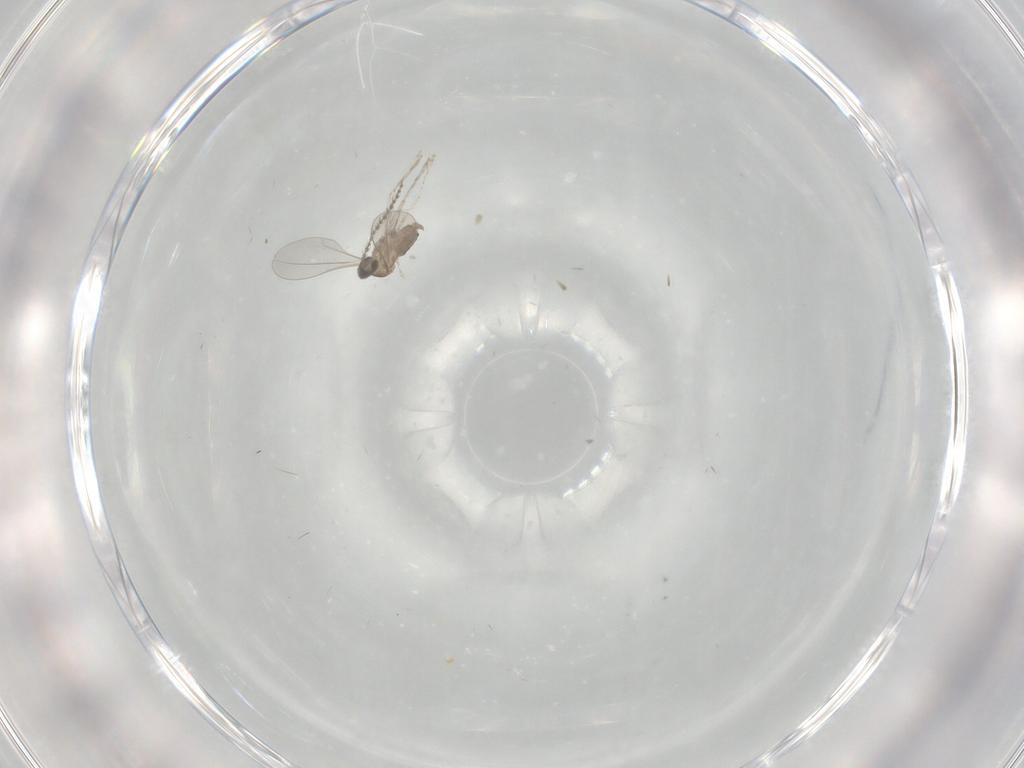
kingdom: Animalia
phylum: Arthropoda
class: Insecta
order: Diptera
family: Cecidomyiidae
